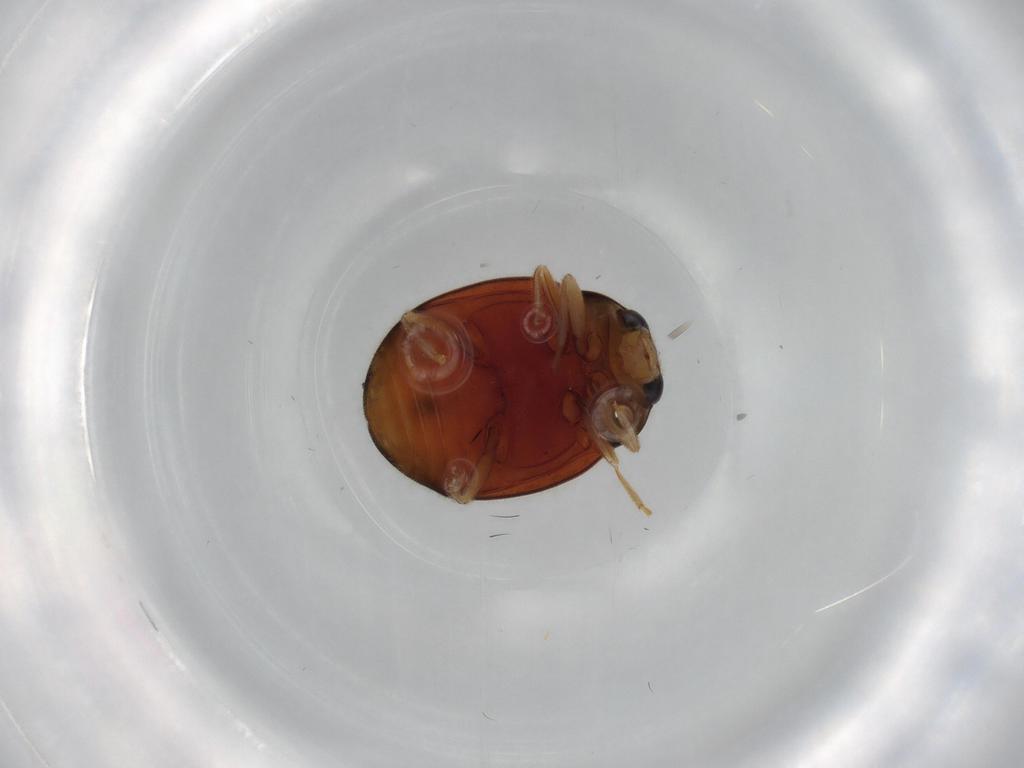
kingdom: Animalia
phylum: Arthropoda
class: Insecta
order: Coleoptera
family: Coccinellidae
